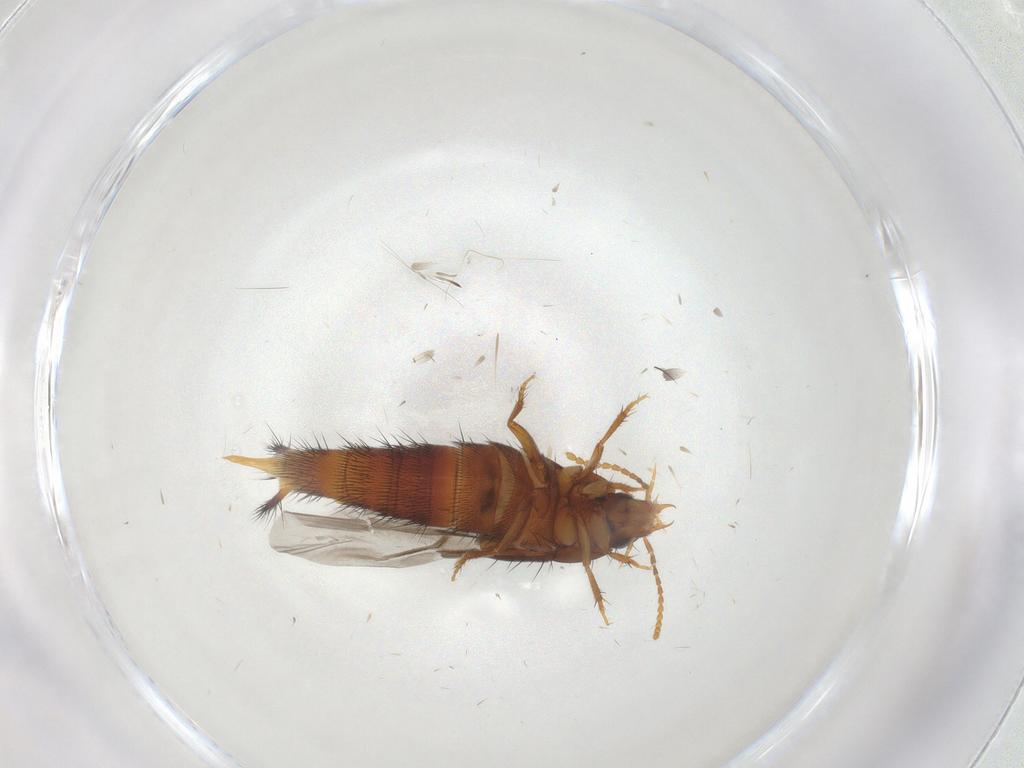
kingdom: Animalia
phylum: Arthropoda
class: Insecta
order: Coleoptera
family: Staphylinidae
